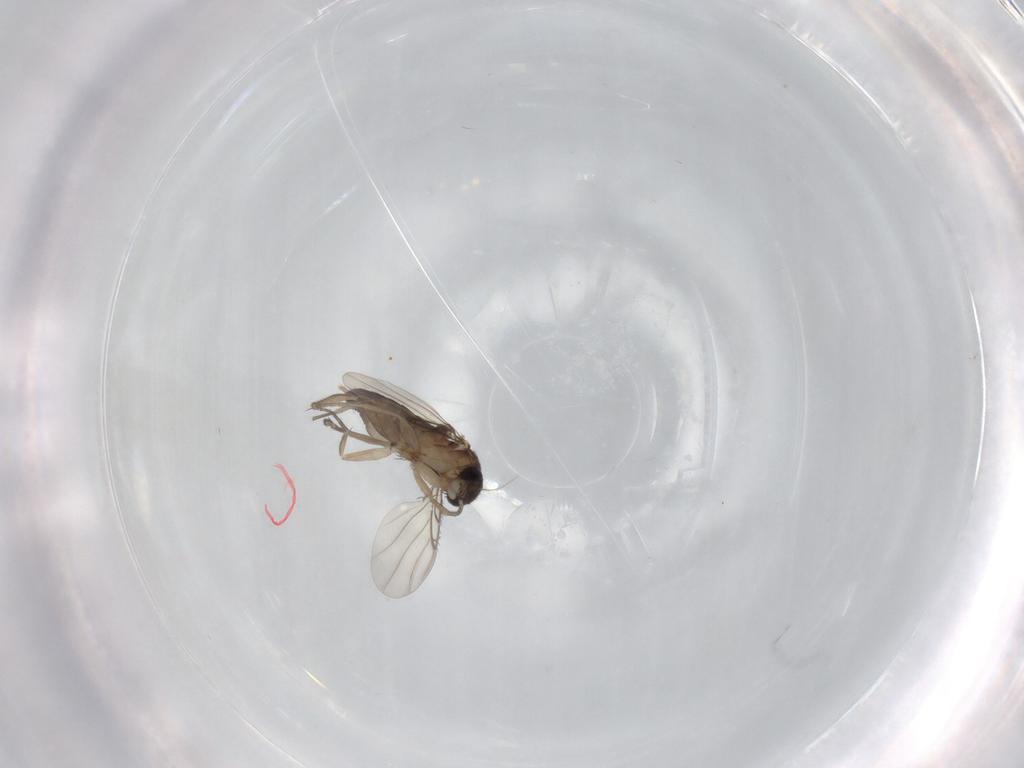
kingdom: Animalia
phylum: Arthropoda
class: Insecta
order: Diptera
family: Phoridae
